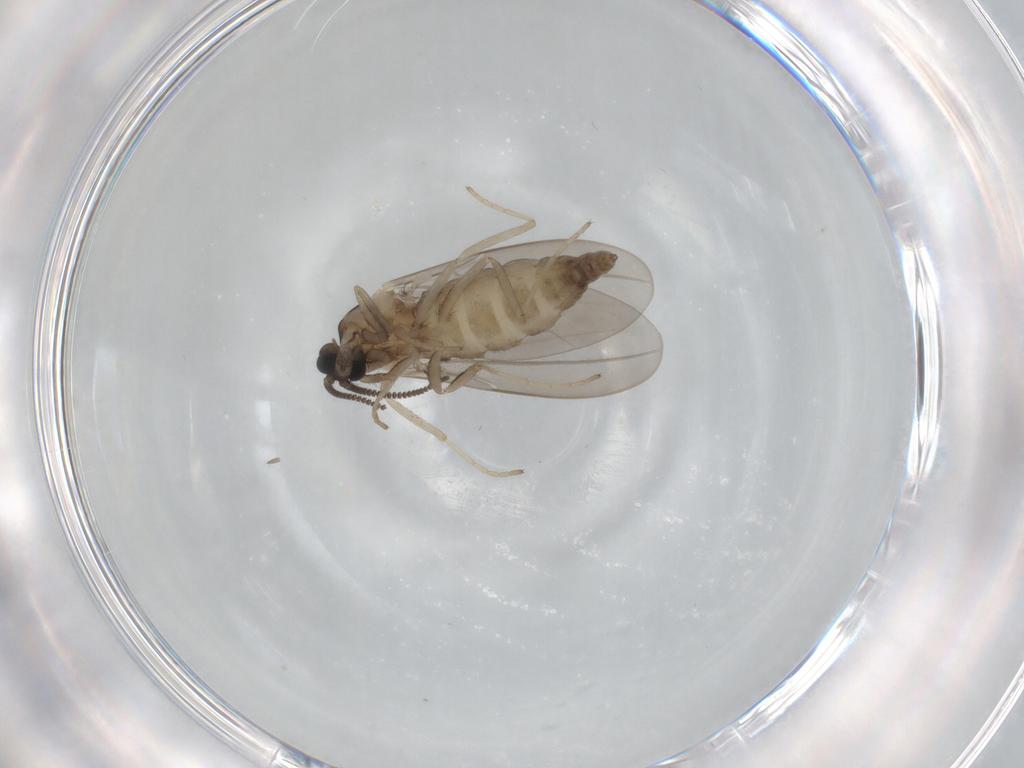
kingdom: Animalia
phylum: Arthropoda
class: Insecta
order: Diptera
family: Cecidomyiidae
